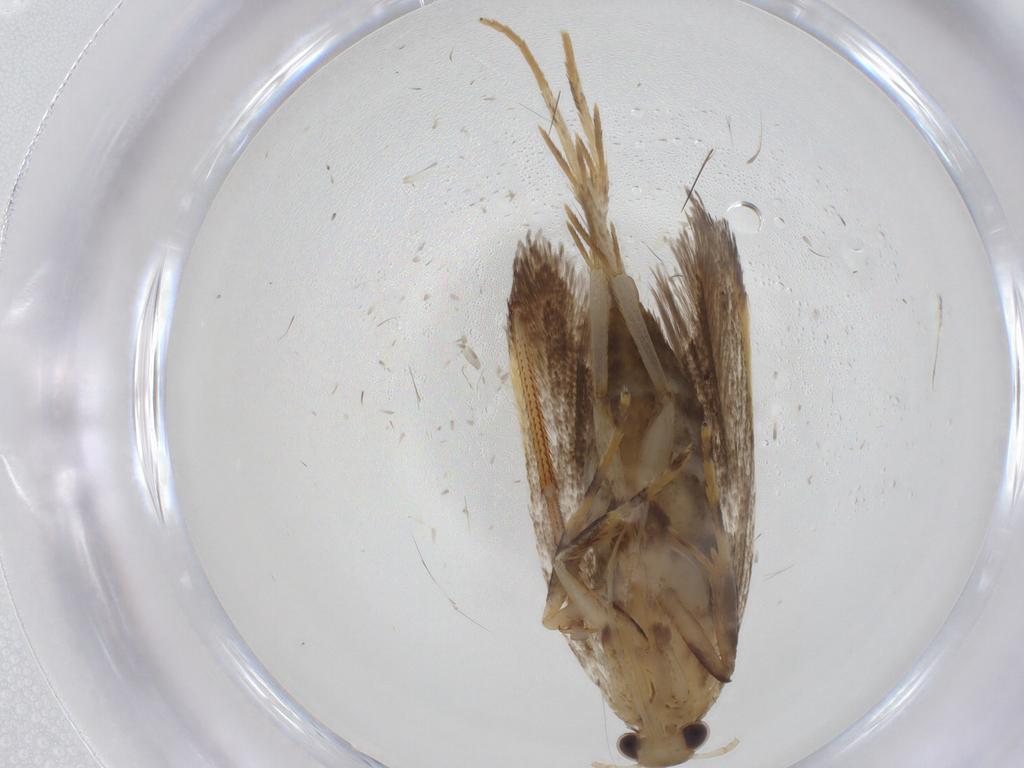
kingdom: Animalia
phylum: Arthropoda
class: Insecta
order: Lepidoptera
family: Lecithoceridae
